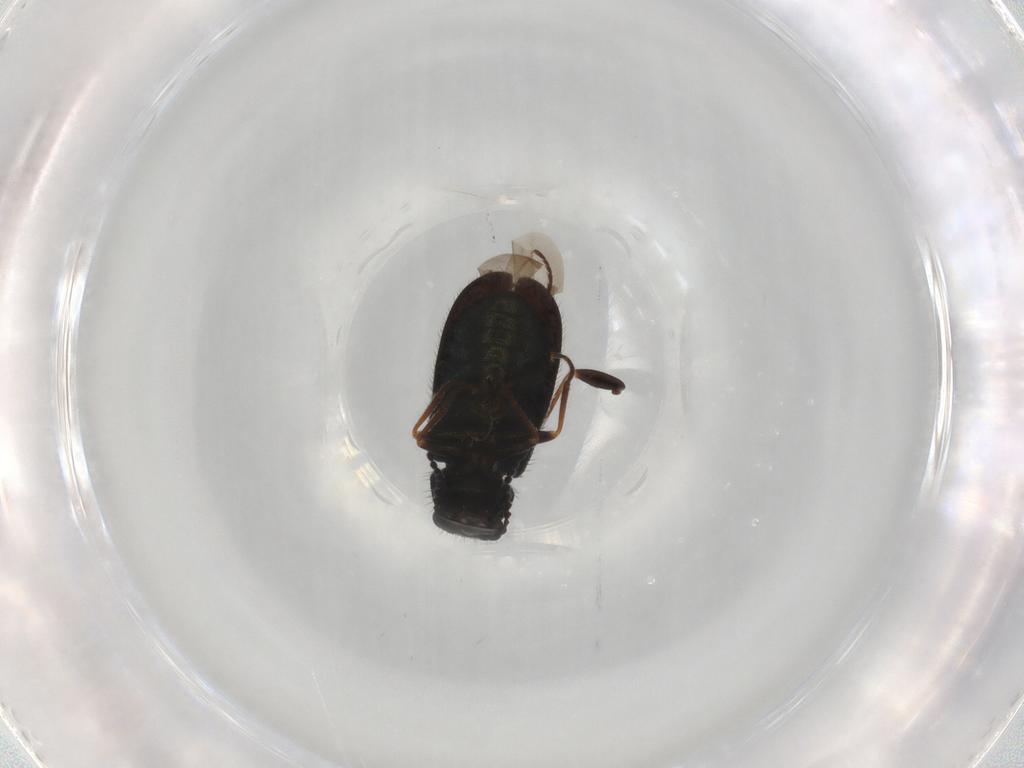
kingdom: Animalia
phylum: Arthropoda
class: Insecta
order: Coleoptera
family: Melyridae
